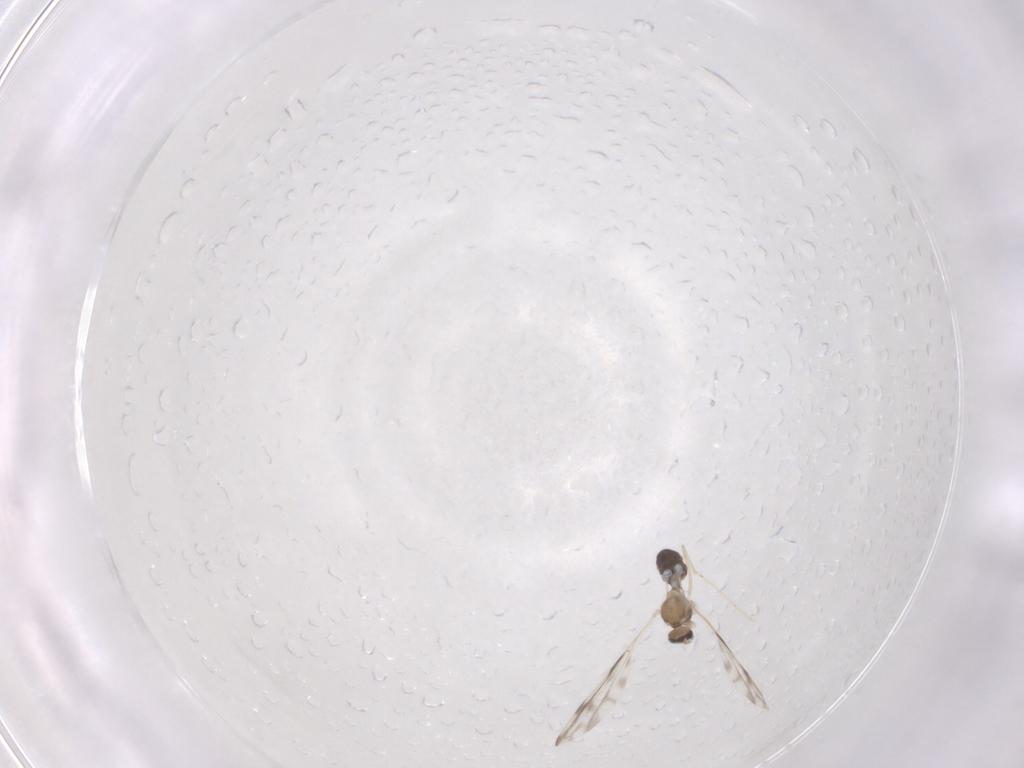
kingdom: Animalia
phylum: Arthropoda
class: Insecta
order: Diptera
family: Cecidomyiidae
